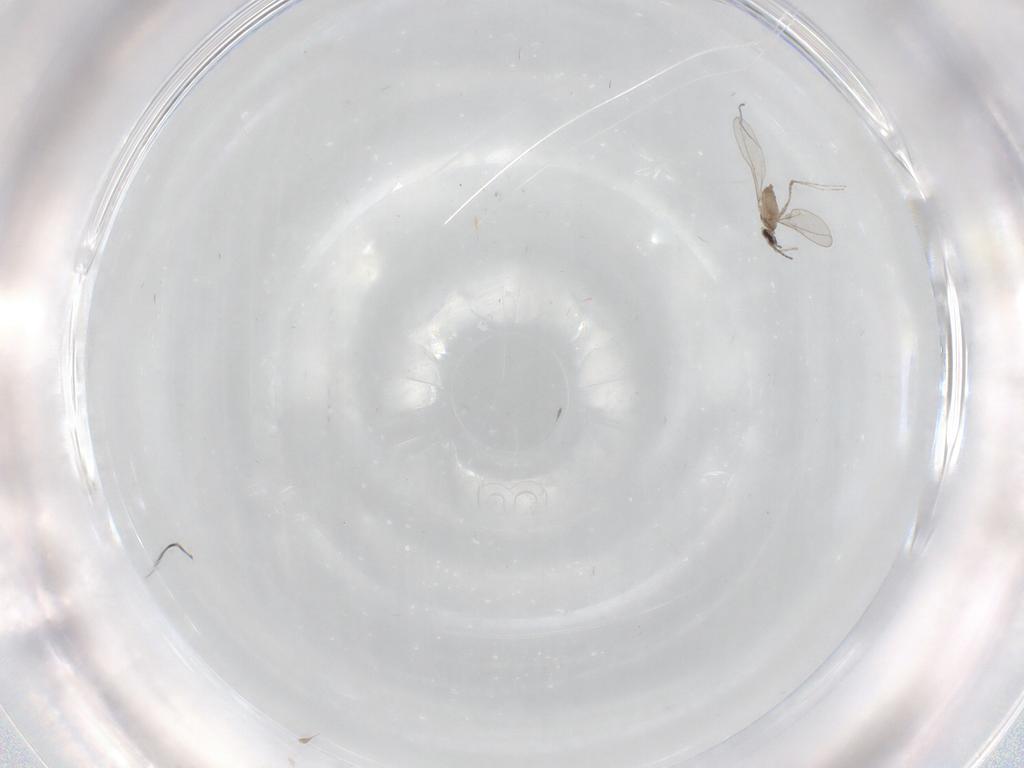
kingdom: Animalia
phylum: Arthropoda
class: Insecta
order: Diptera
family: Cecidomyiidae
